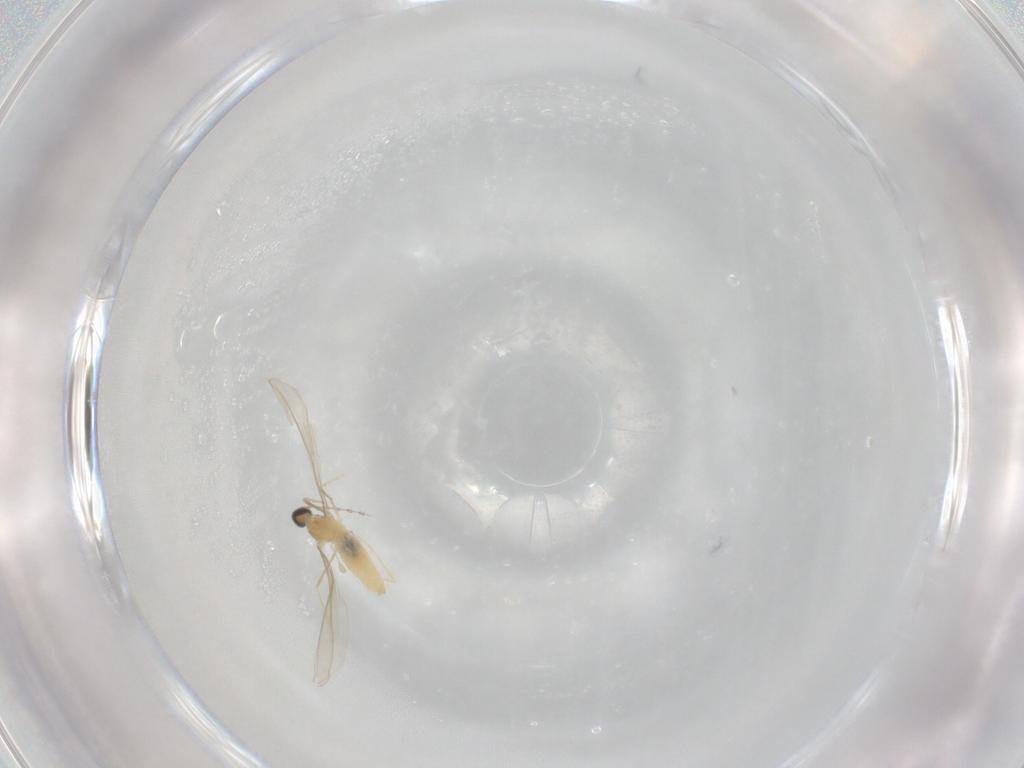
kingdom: Animalia
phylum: Arthropoda
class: Insecta
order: Diptera
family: Cecidomyiidae
